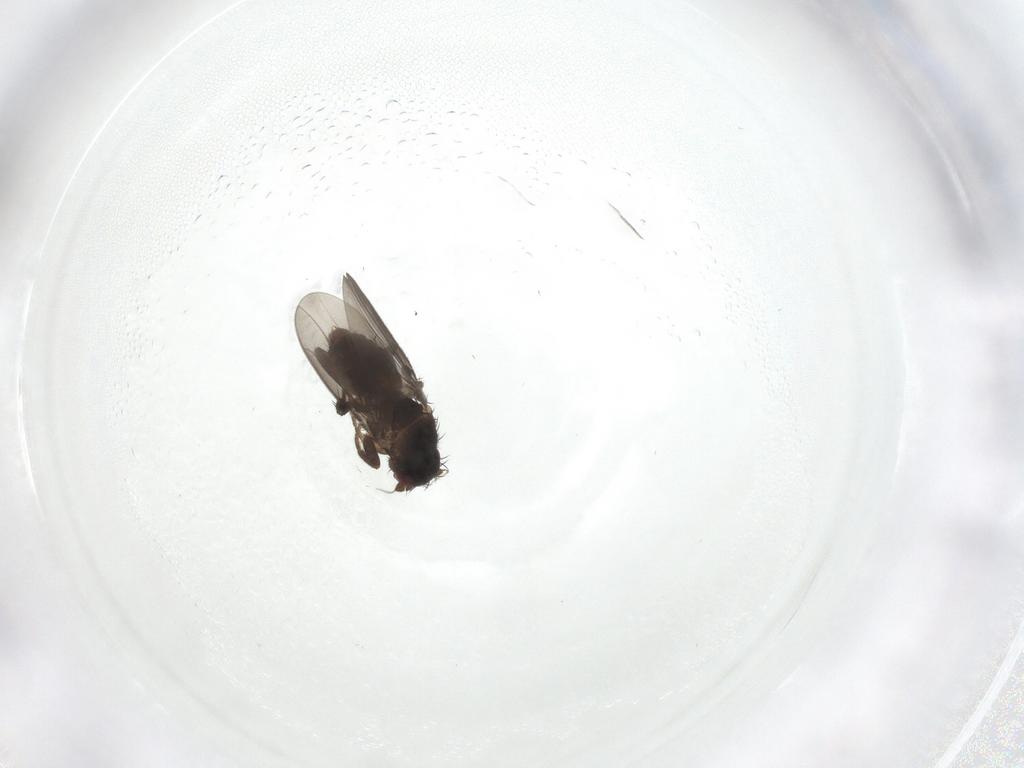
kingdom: Animalia
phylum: Arthropoda
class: Insecta
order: Diptera
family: Sphaeroceridae
